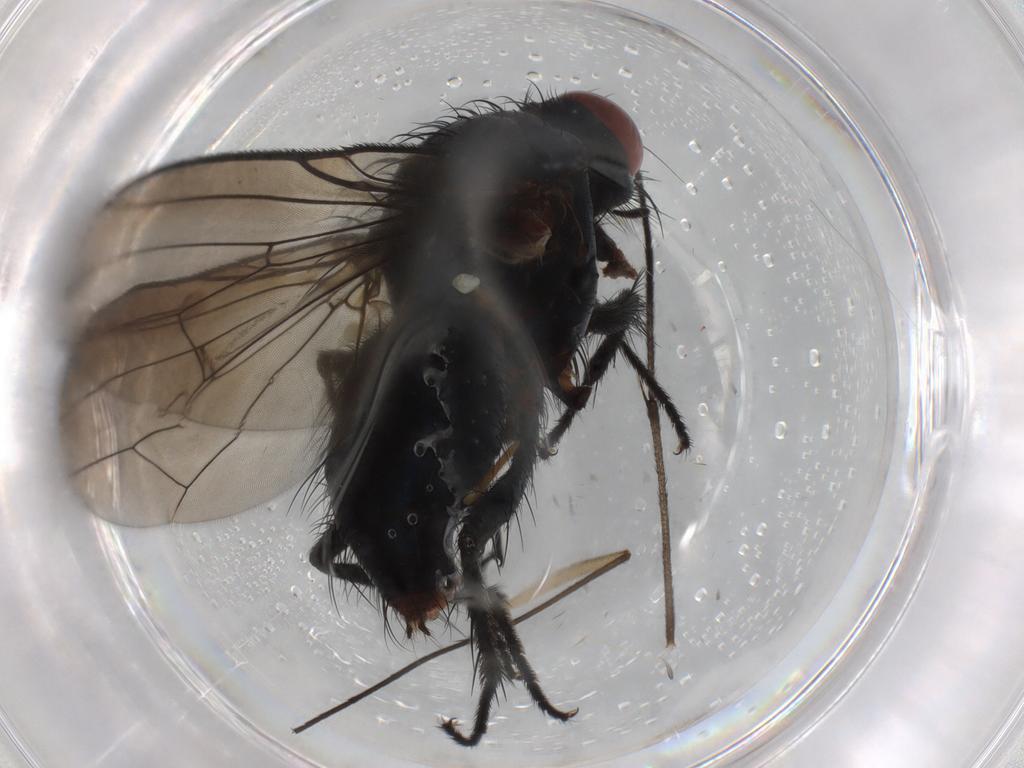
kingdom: Animalia
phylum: Arthropoda
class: Insecta
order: Diptera
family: Anthomyiidae
